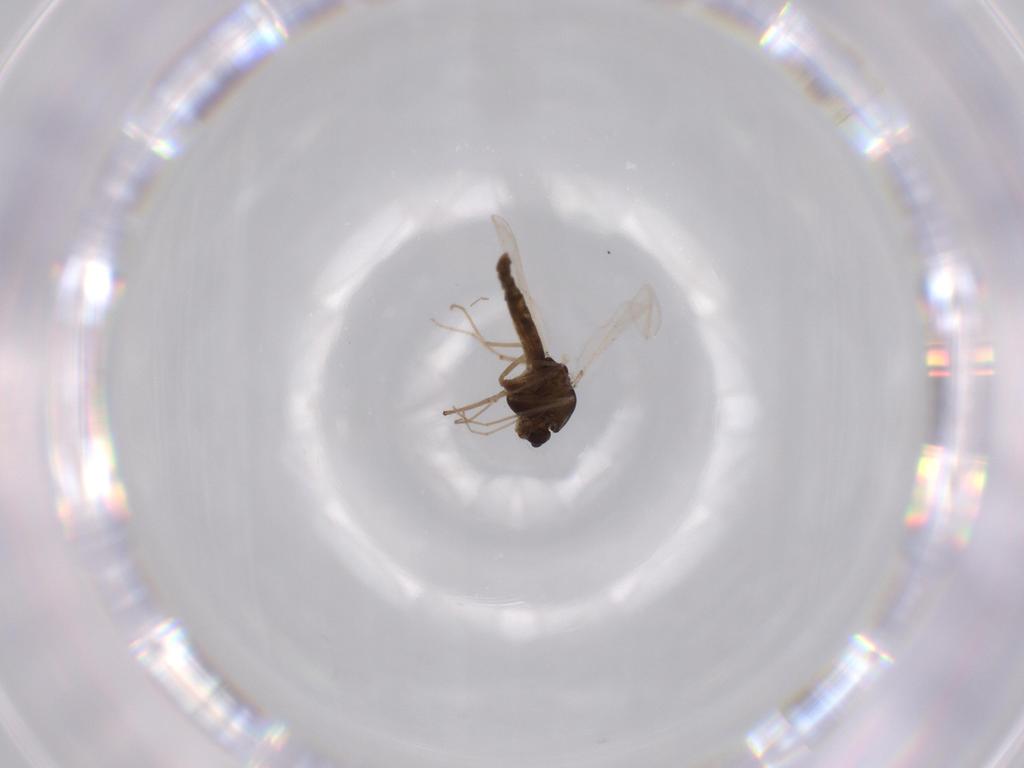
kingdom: Animalia
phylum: Arthropoda
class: Insecta
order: Diptera
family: Chironomidae
